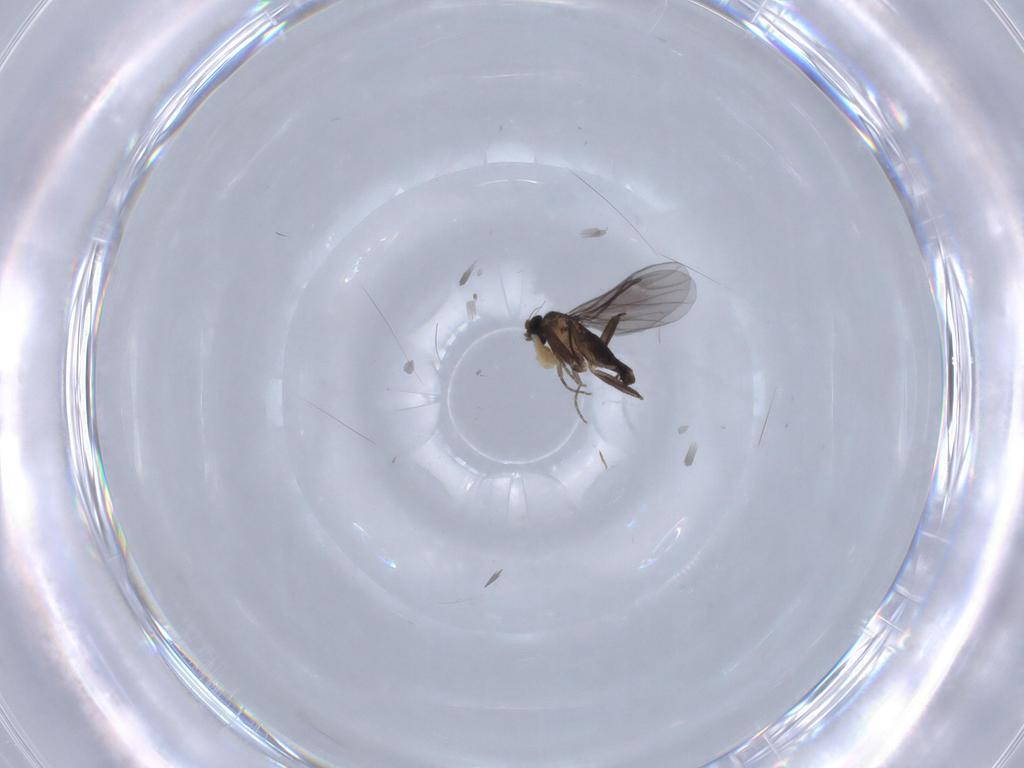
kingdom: Animalia
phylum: Arthropoda
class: Insecta
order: Diptera
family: Phoridae
